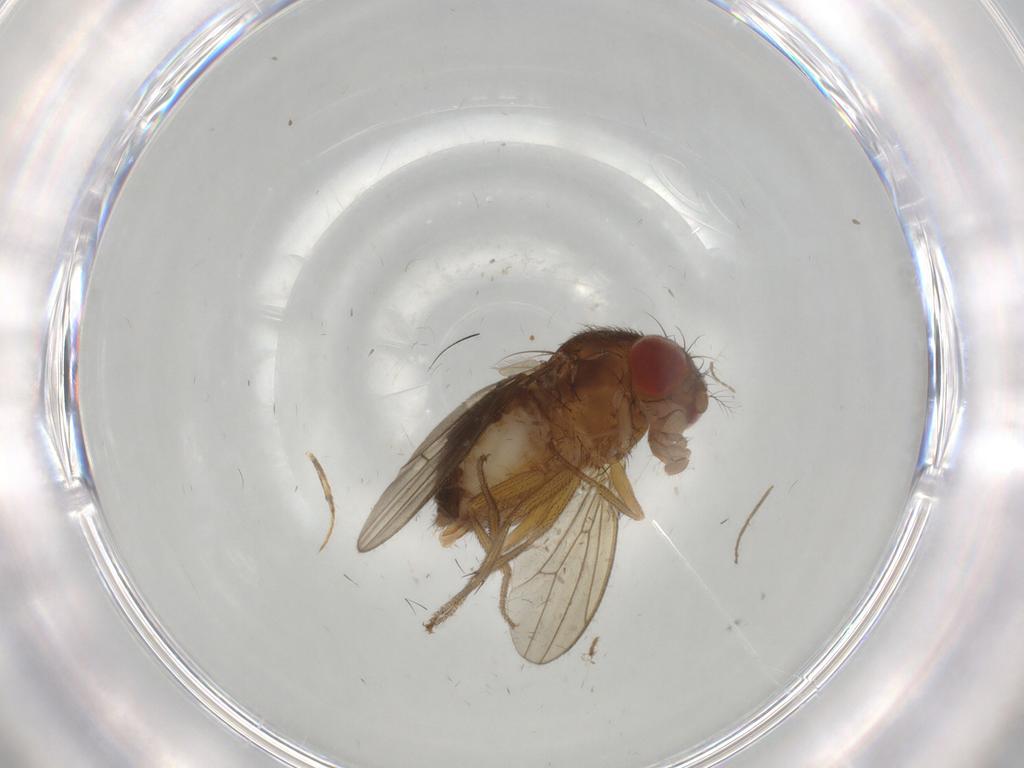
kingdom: Animalia
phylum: Arthropoda
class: Insecta
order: Diptera
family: Drosophilidae
